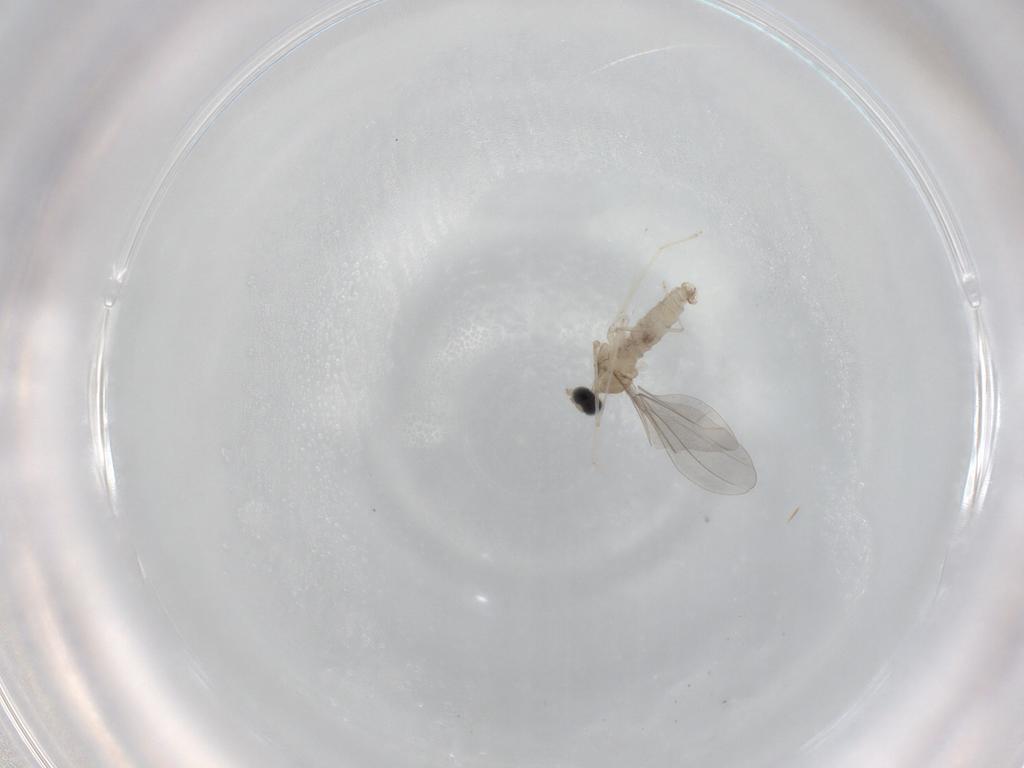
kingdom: Animalia
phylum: Arthropoda
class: Insecta
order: Diptera
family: Cecidomyiidae
